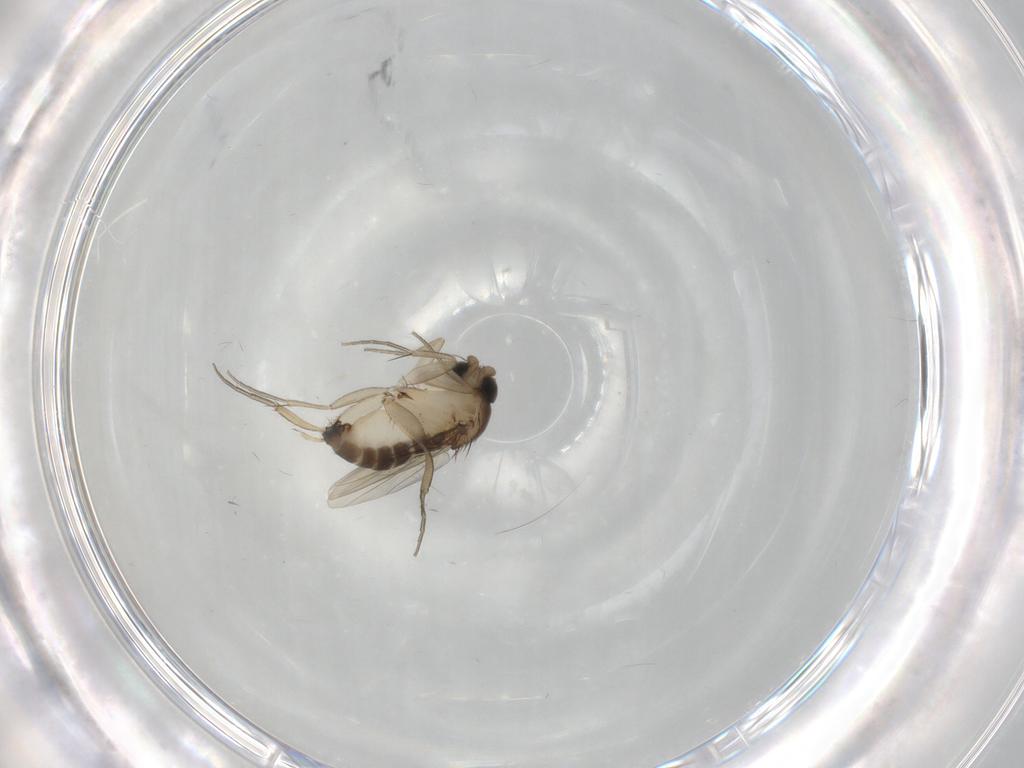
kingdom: Animalia
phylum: Arthropoda
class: Insecta
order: Diptera
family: Phoridae
